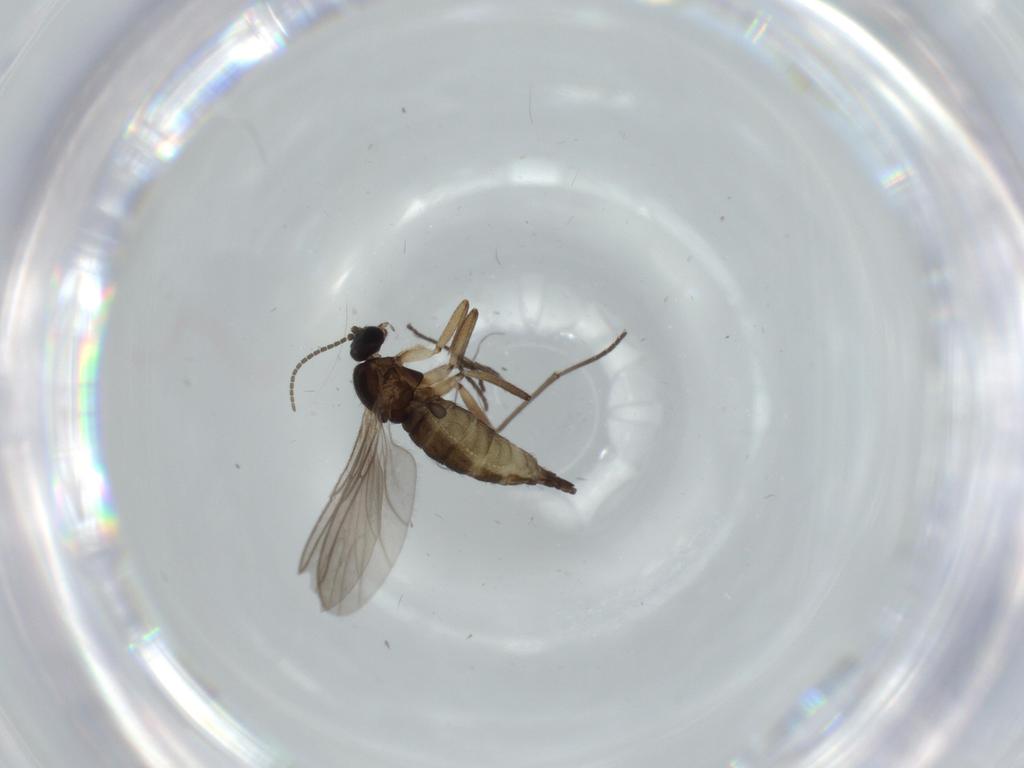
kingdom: Animalia
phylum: Arthropoda
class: Insecta
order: Diptera
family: Sciaridae
